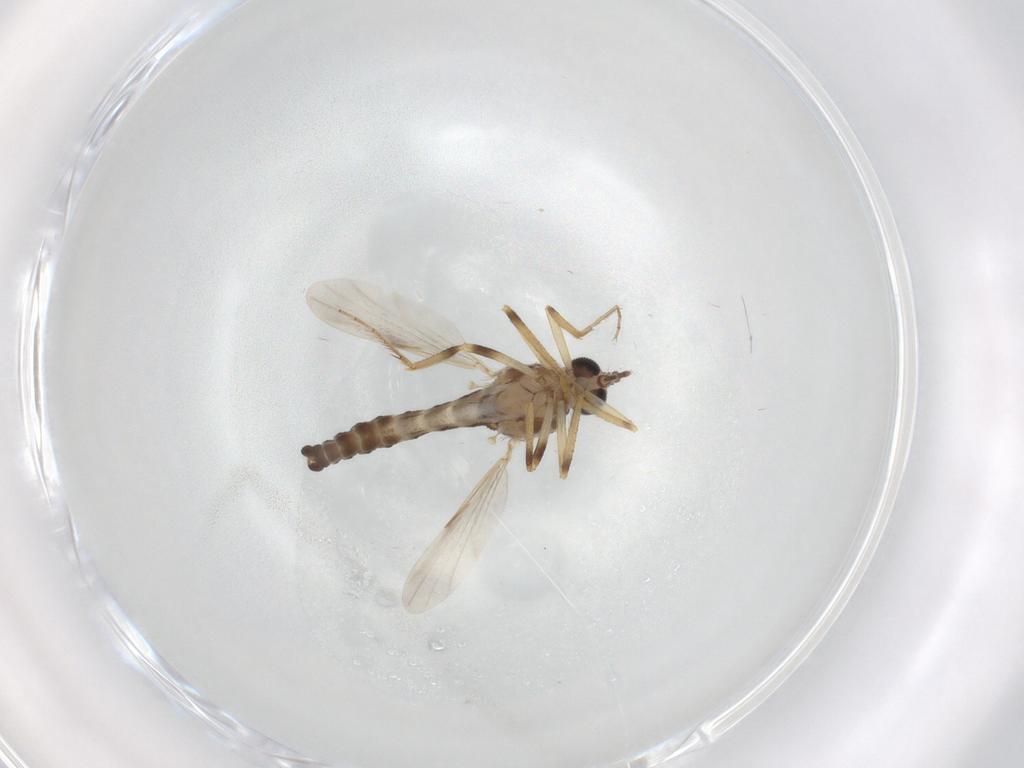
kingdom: Animalia
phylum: Arthropoda
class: Insecta
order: Diptera
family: Ceratopogonidae
